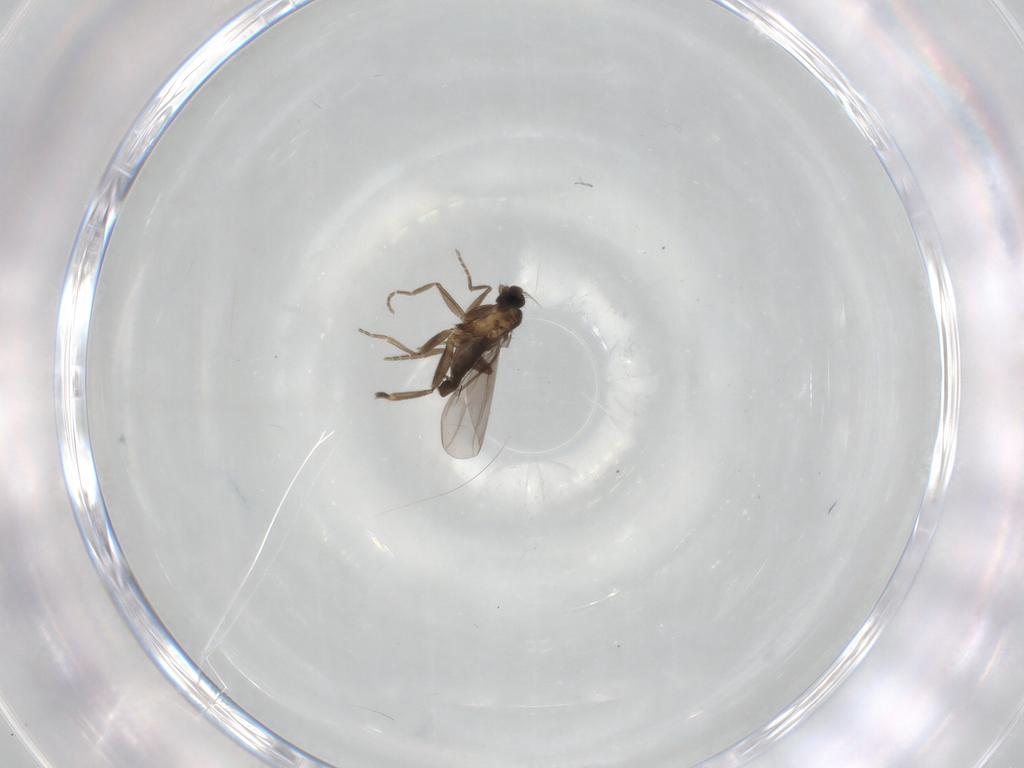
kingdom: Animalia
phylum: Arthropoda
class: Insecta
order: Diptera
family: Phoridae
